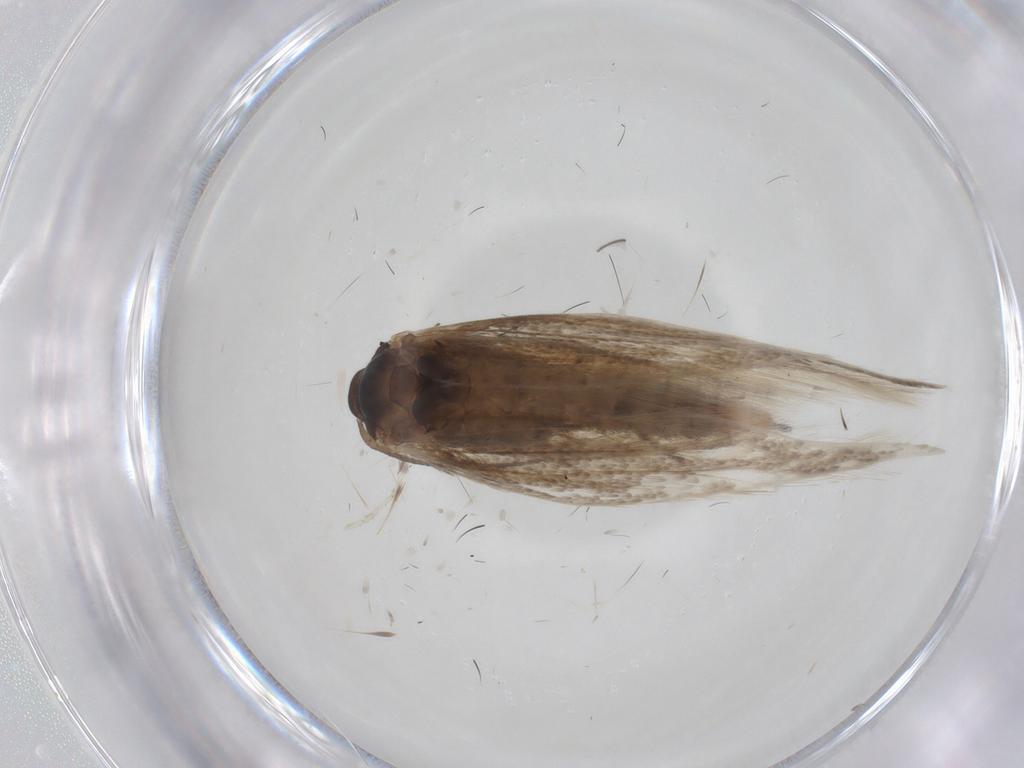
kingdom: Animalia
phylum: Arthropoda
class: Insecta
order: Lepidoptera
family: Elachistidae
